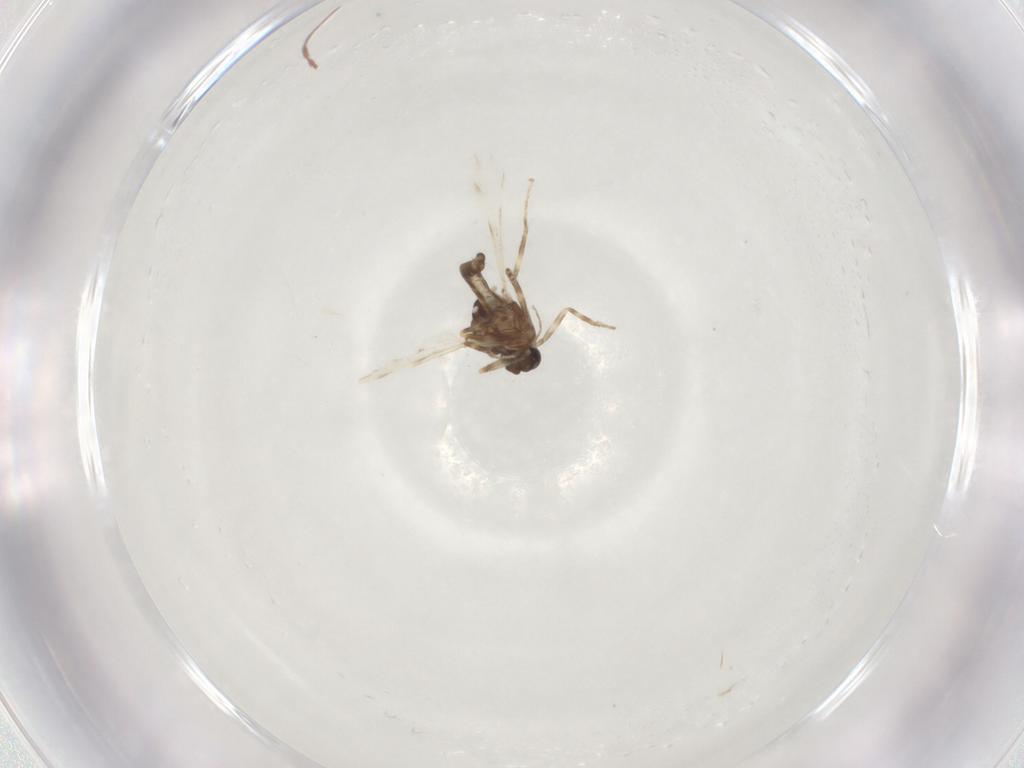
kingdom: Animalia
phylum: Arthropoda
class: Insecta
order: Diptera
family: Ceratopogonidae
